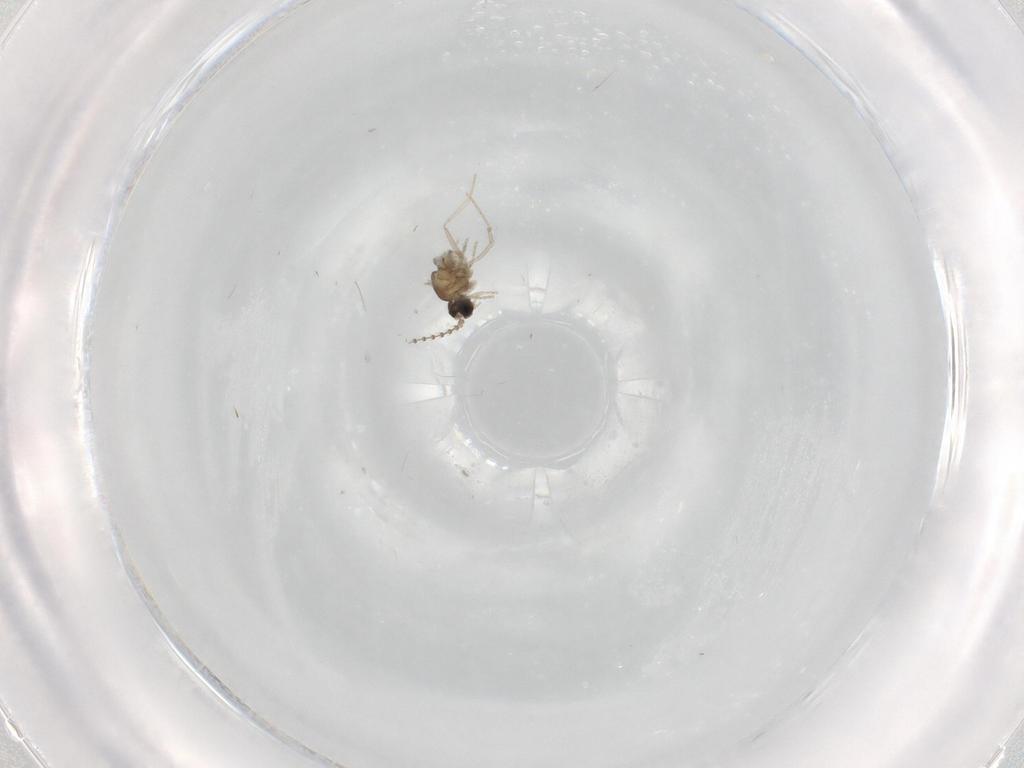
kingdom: Animalia
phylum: Arthropoda
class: Insecta
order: Diptera
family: Cecidomyiidae
